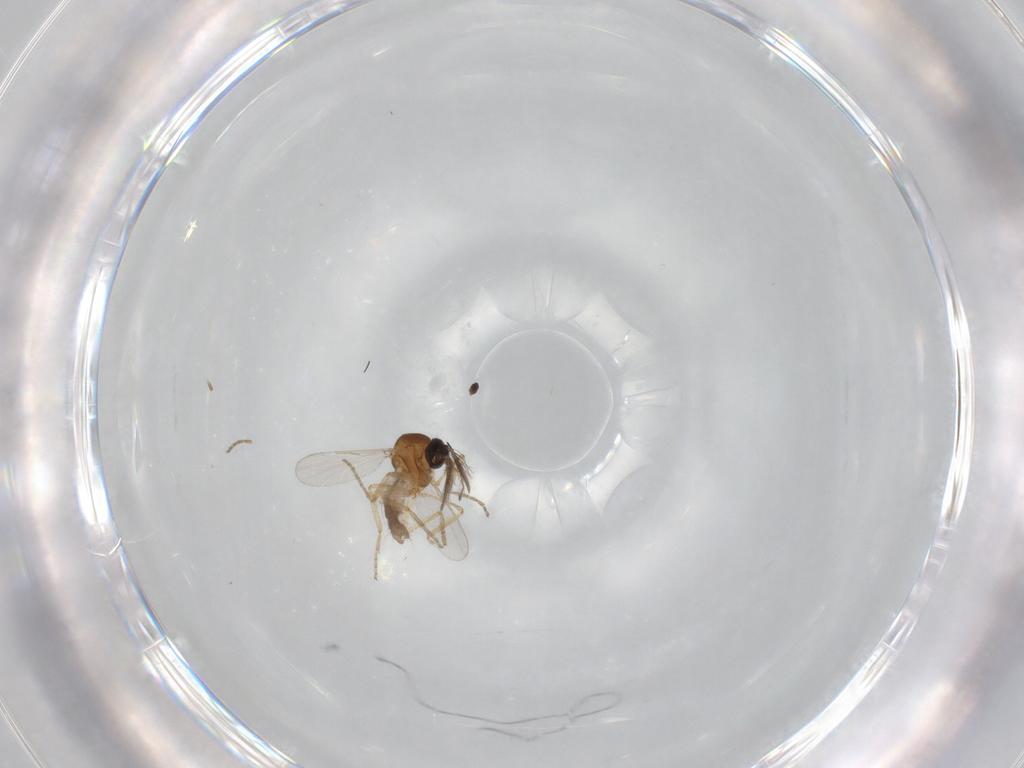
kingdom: Animalia
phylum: Arthropoda
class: Insecta
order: Diptera
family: Ceratopogonidae
